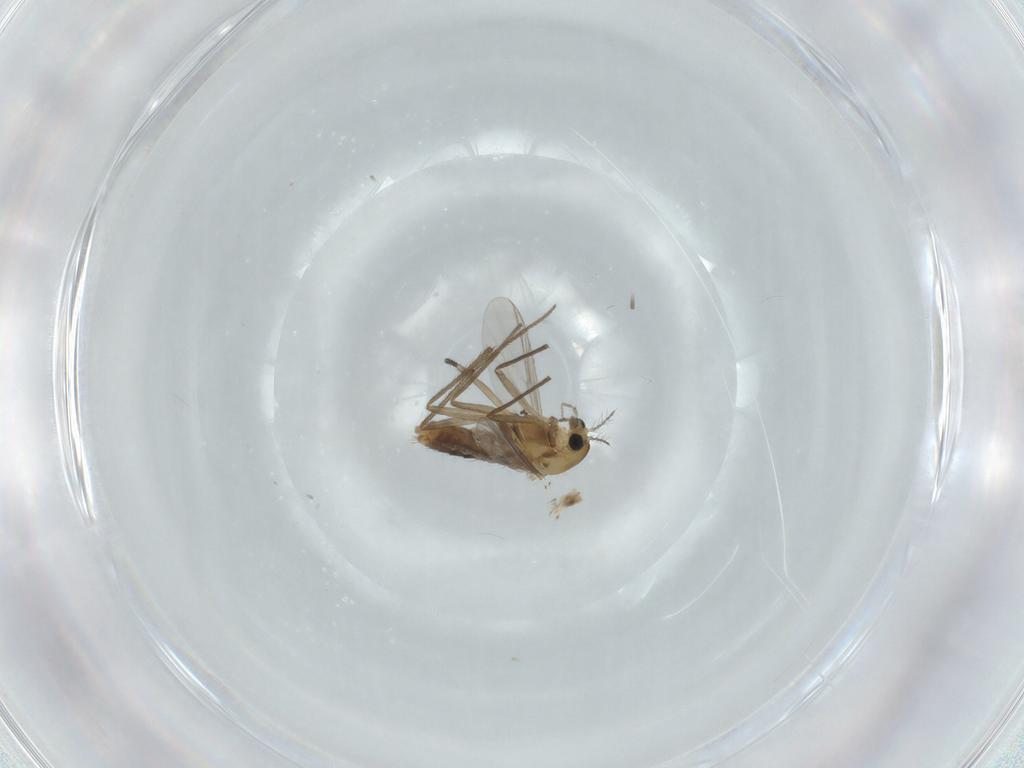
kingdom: Animalia
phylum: Arthropoda
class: Insecta
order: Diptera
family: Chironomidae
